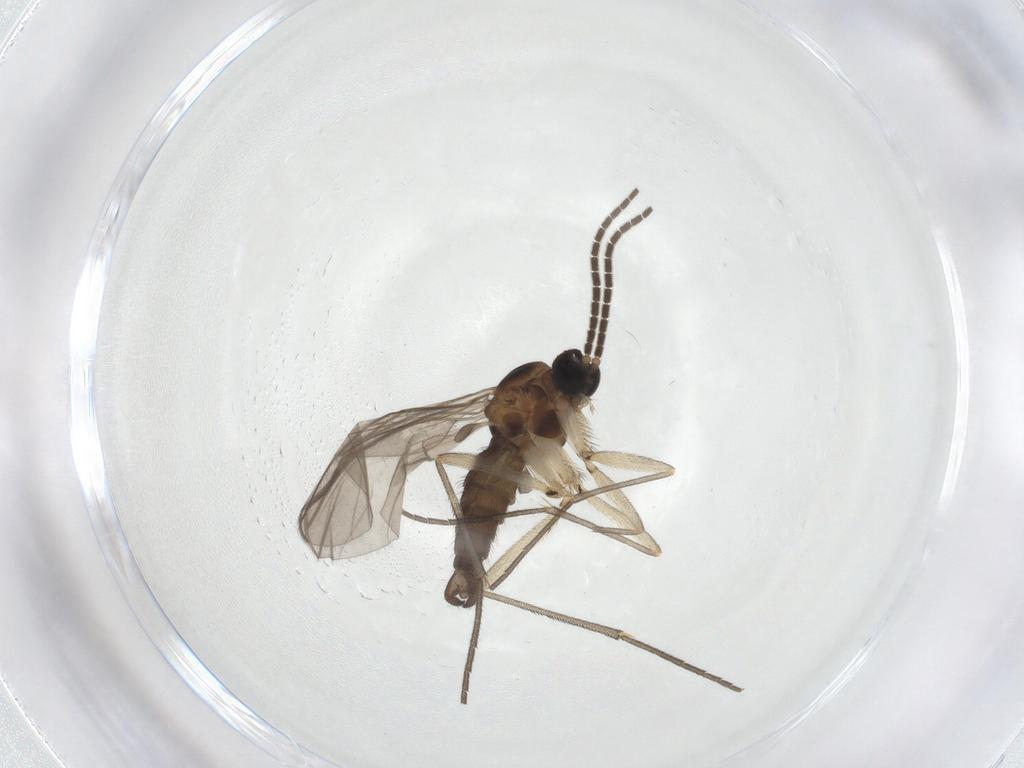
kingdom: Animalia
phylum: Arthropoda
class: Insecta
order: Diptera
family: Sciaridae
